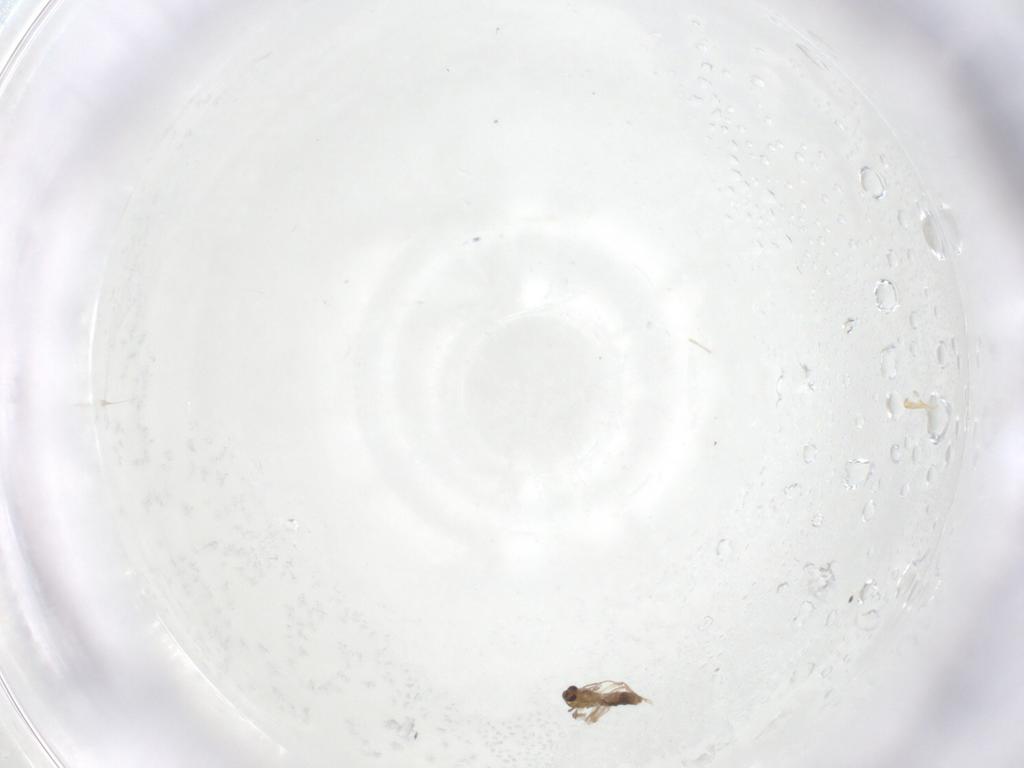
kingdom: Animalia
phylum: Arthropoda
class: Insecta
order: Diptera
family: Chironomidae
